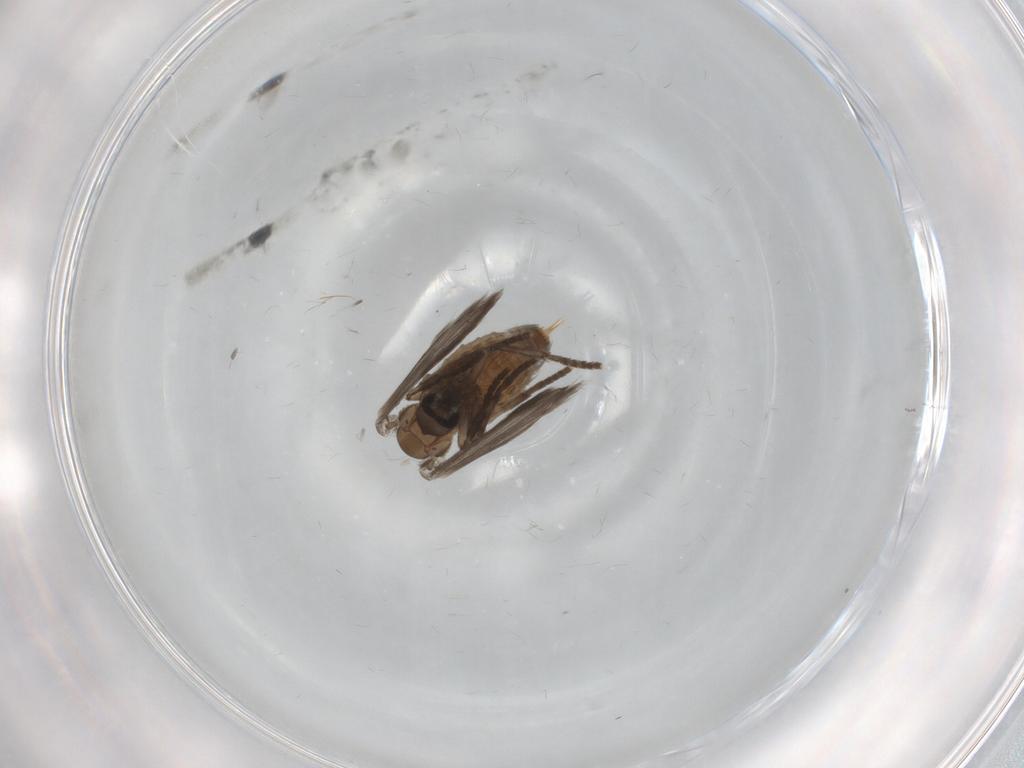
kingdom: Animalia
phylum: Arthropoda
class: Insecta
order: Diptera
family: Psychodidae
